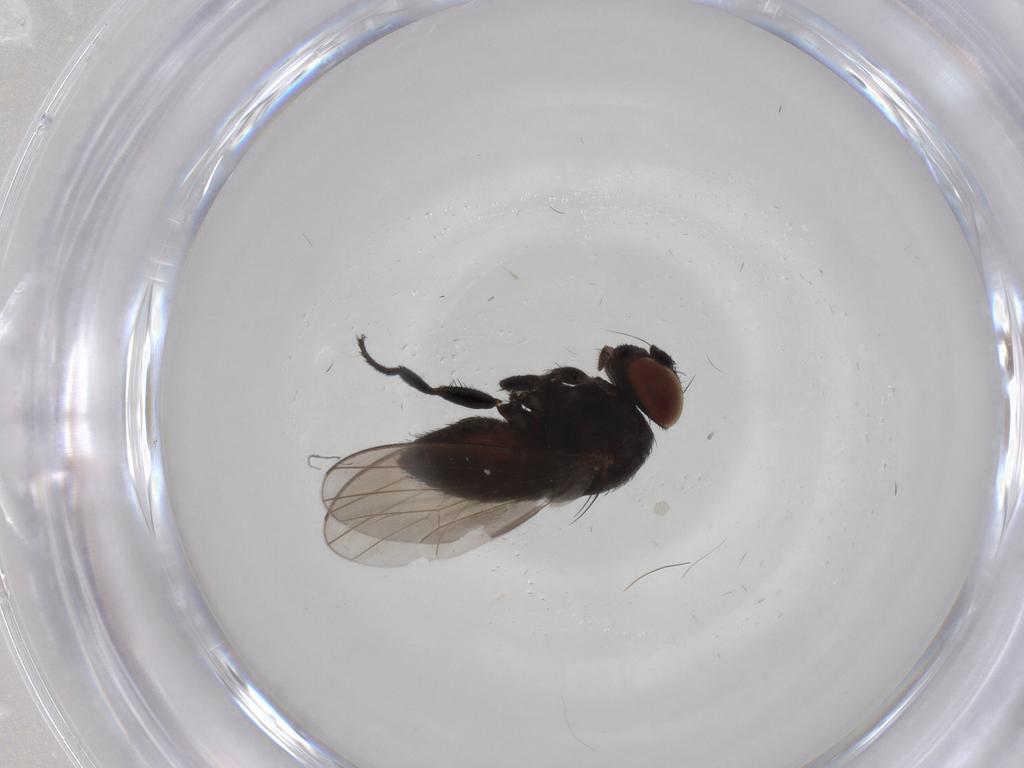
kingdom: Animalia
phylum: Arthropoda
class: Insecta
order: Diptera
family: Milichiidae
